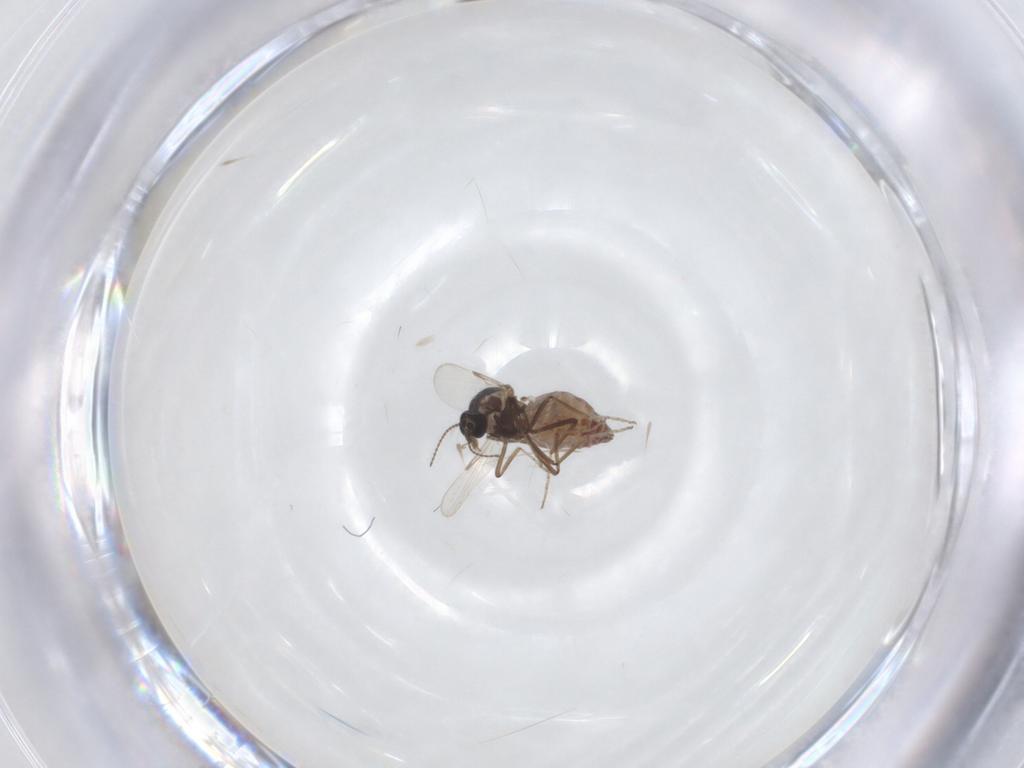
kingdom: Animalia
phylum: Arthropoda
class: Insecta
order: Diptera
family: Ceratopogonidae
